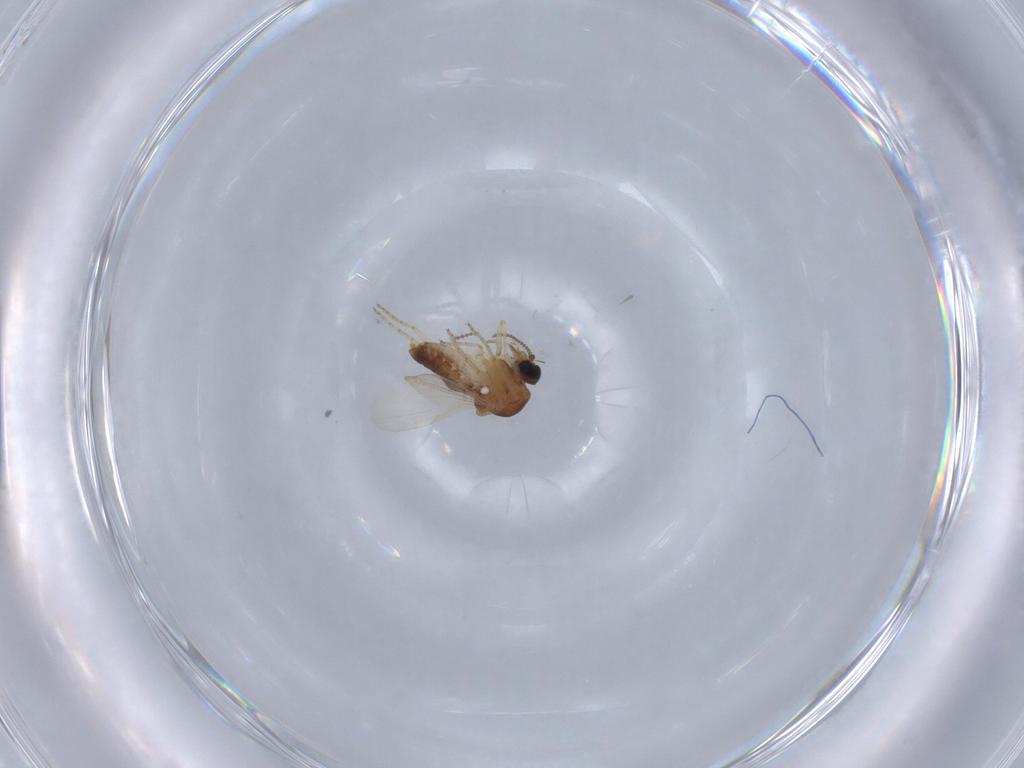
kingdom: Animalia
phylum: Arthropoda
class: Insecta
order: Diptera
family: Ceratopogonidae
